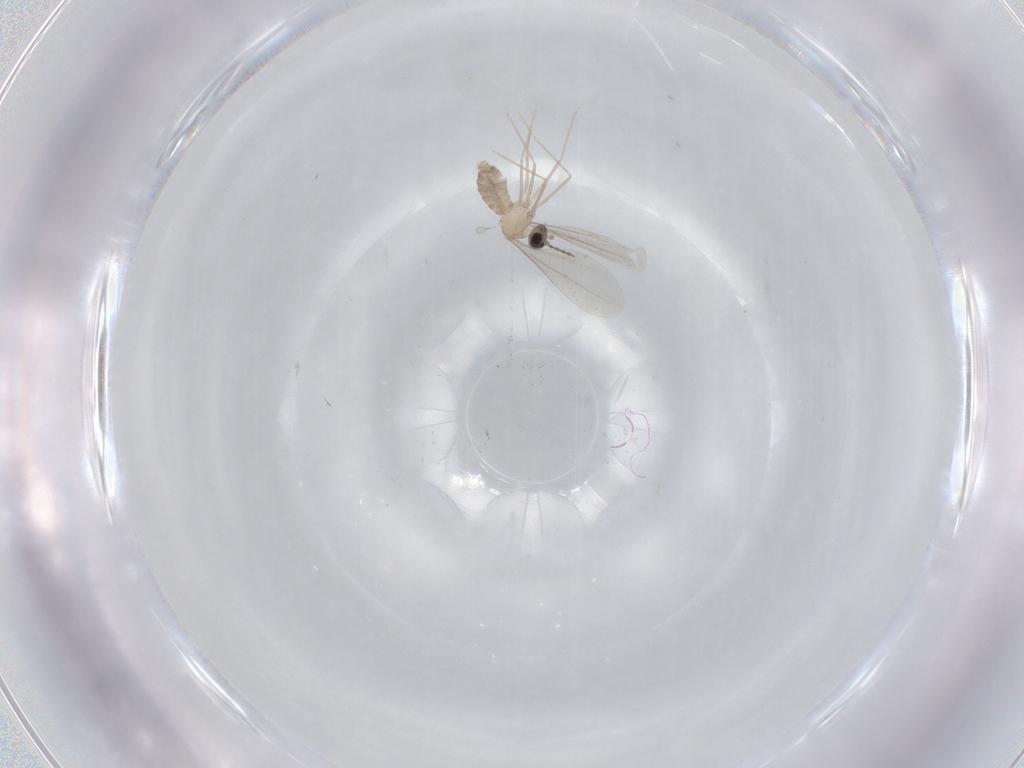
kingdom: Animalia
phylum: Arthropoda
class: Insecta
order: Diptera
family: Cecidomyiidae
